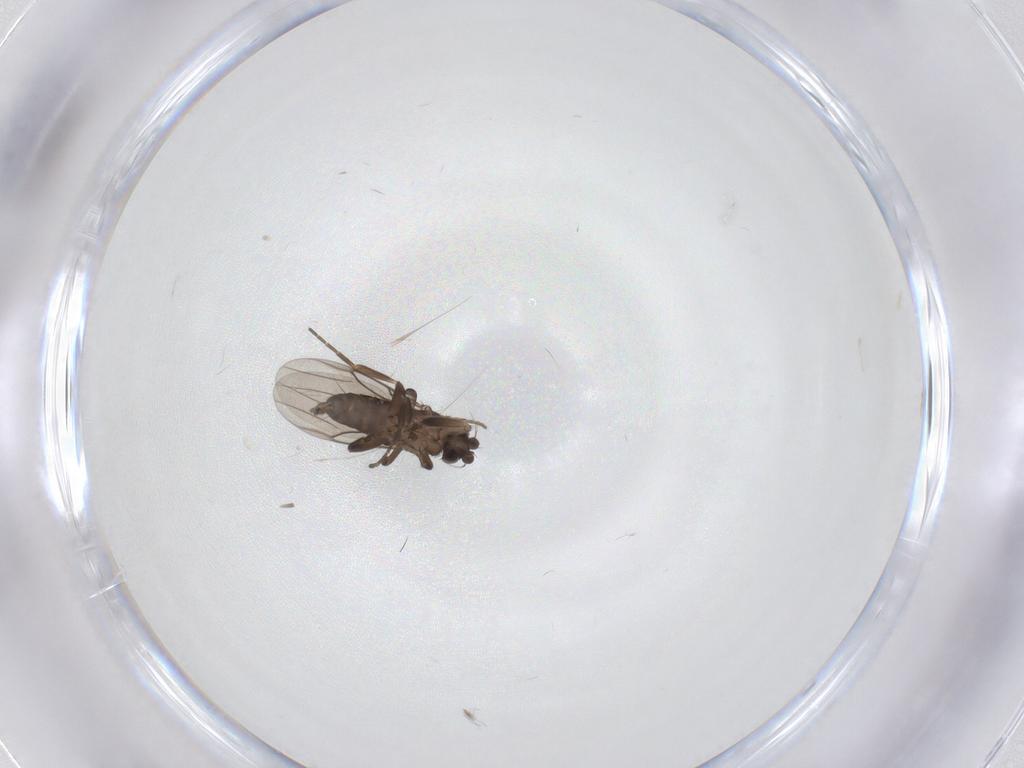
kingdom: Animalia
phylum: Arthropoda
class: Insecta
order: Diptera
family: Phoridae
